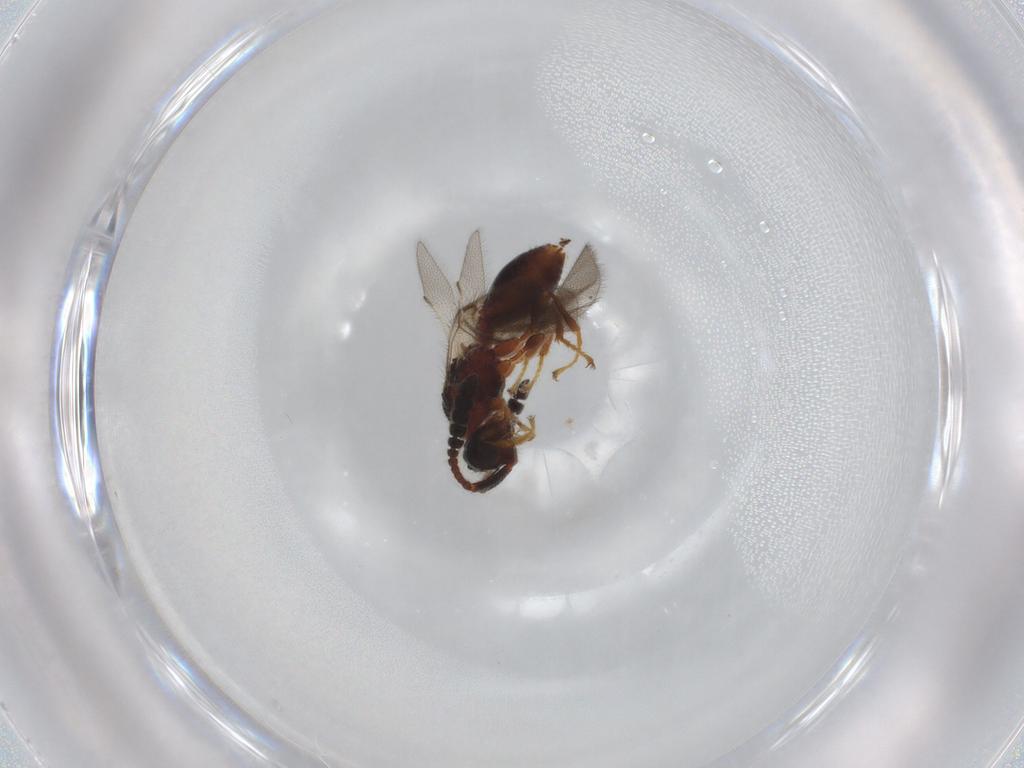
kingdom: Animalia
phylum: Arthropoda
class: Insecta
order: Hymenoptera
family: Diapriidae
